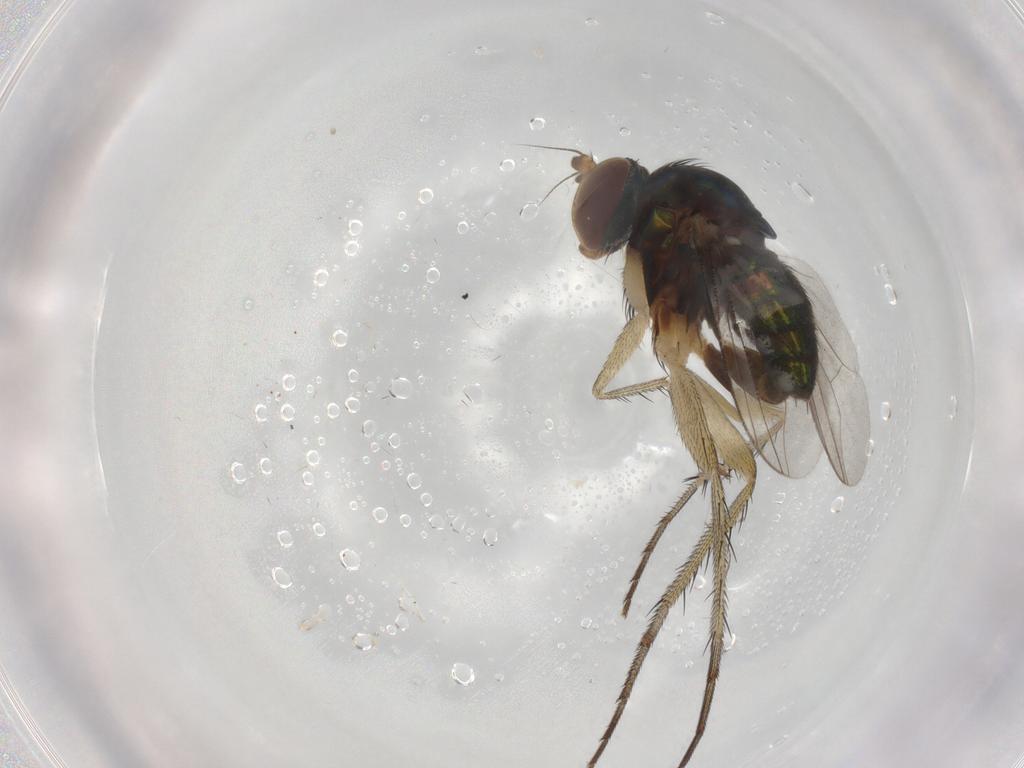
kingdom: Animalia
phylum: Arthropoda
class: Insecta
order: Diptera
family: Dolichopodidae
